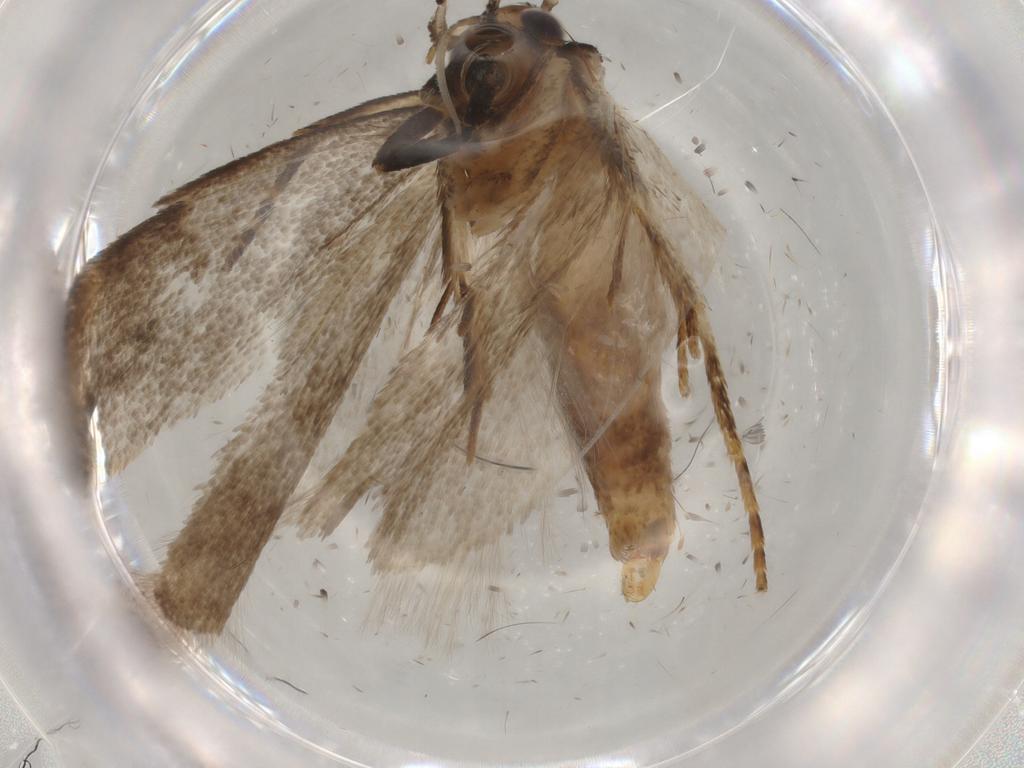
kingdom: Animalia
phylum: Arthropoda
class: Insecta
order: Lepidoptera
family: Gelechiidae
